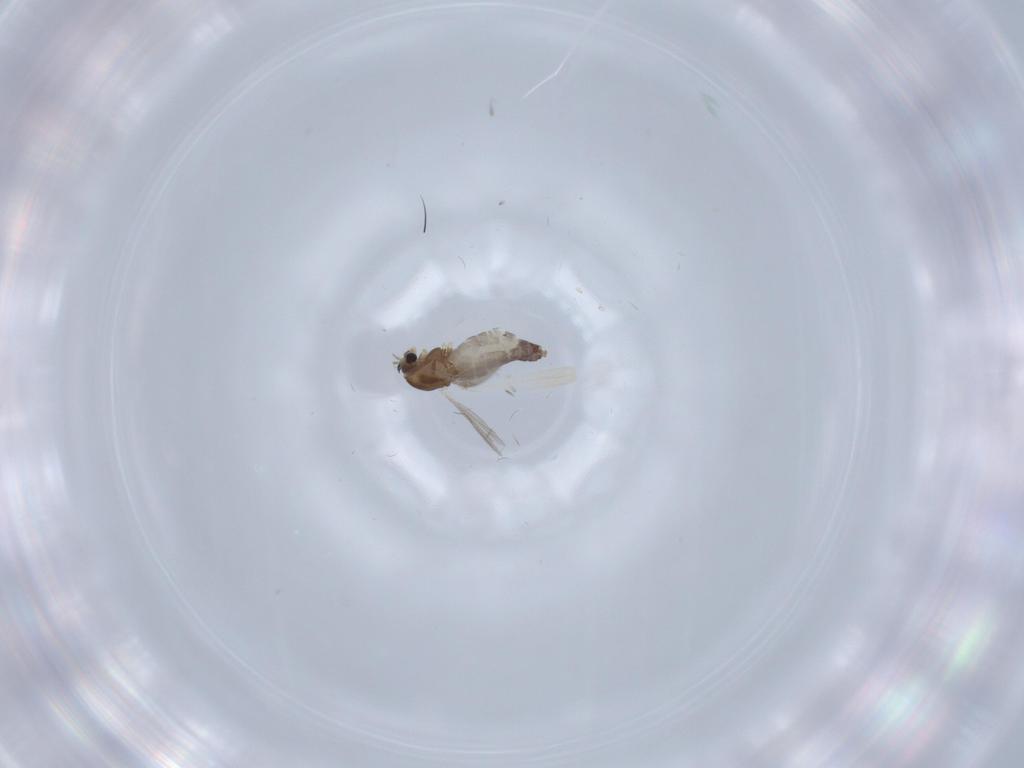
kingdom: Animalia
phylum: Arthropoda
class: Insecta
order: Diptera
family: Chironomidae
